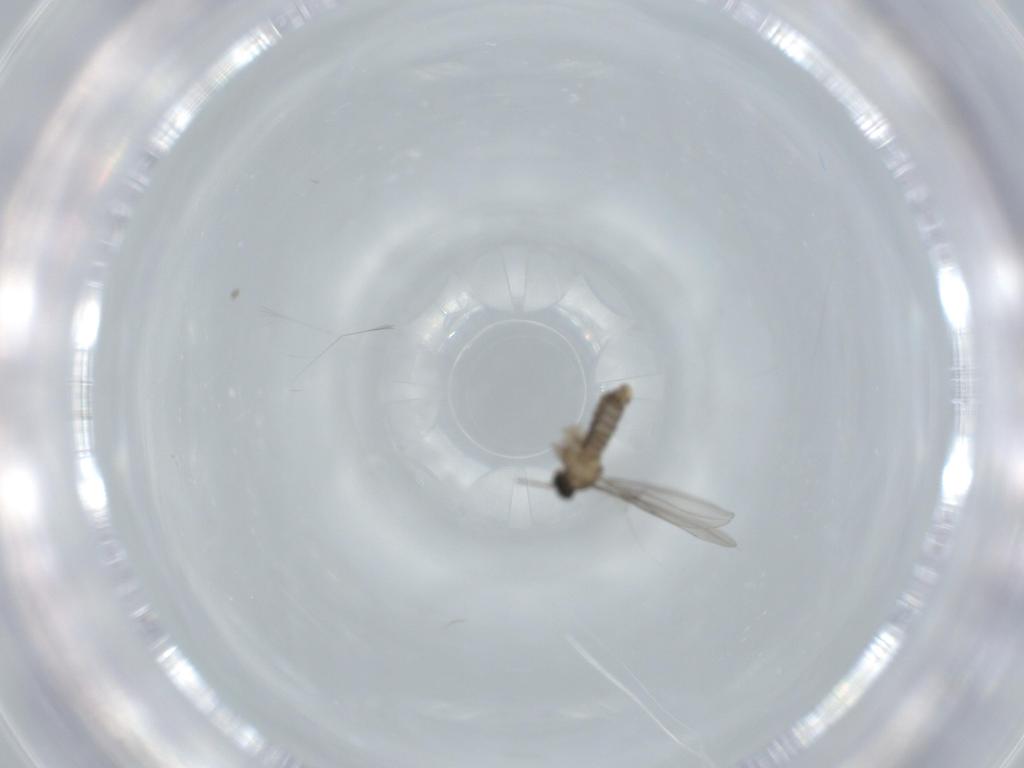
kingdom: Animalia
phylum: Arthropoda
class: Insecta
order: Diptera
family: Cecidomyiidae
